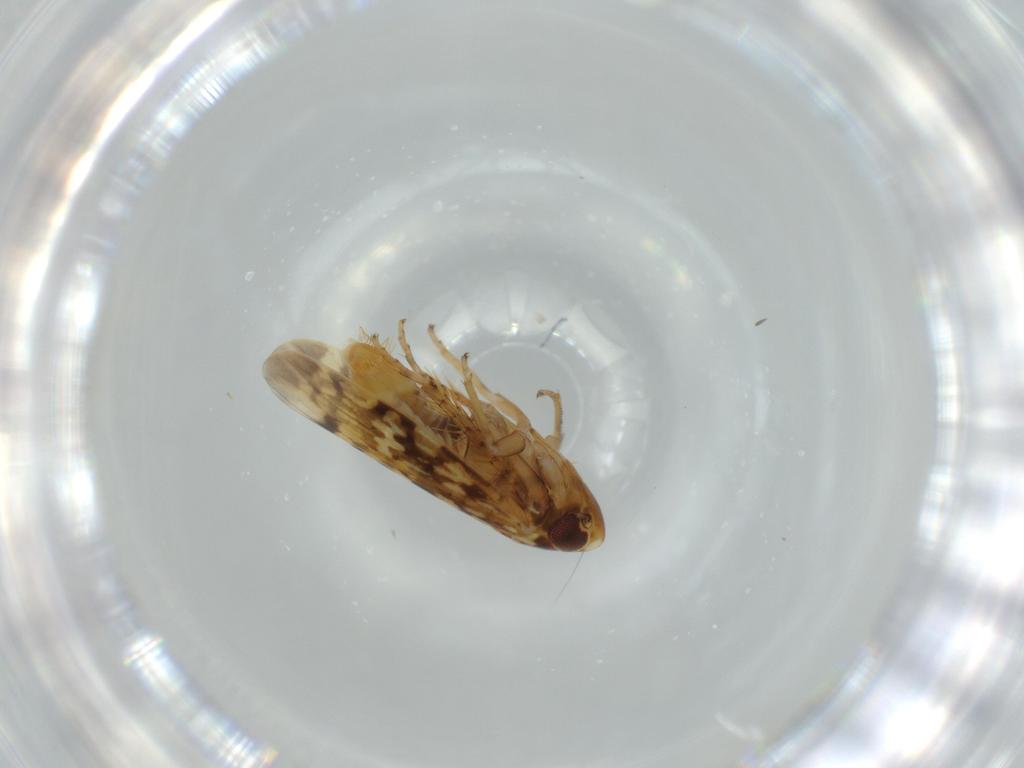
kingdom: Animalia
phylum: Arthropoda
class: Insecta
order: Hemiptera
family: Cicadellidae
